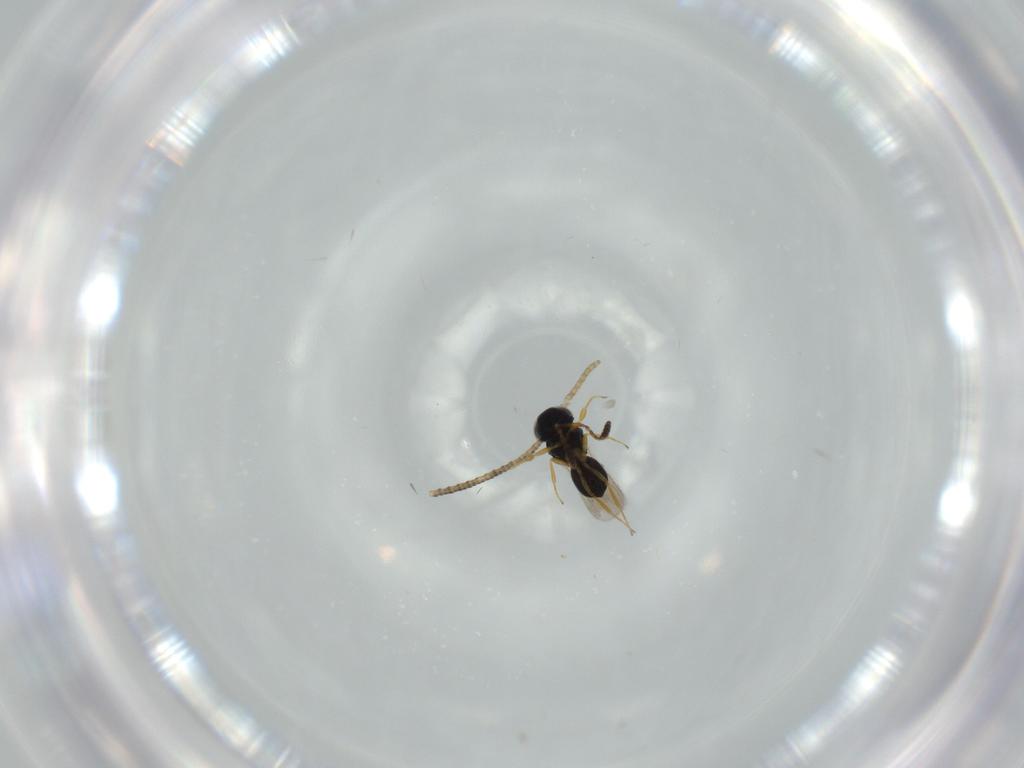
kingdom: Animalia
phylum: Arthropoda
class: Insecta
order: Hymenoptera
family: Scelionidae
